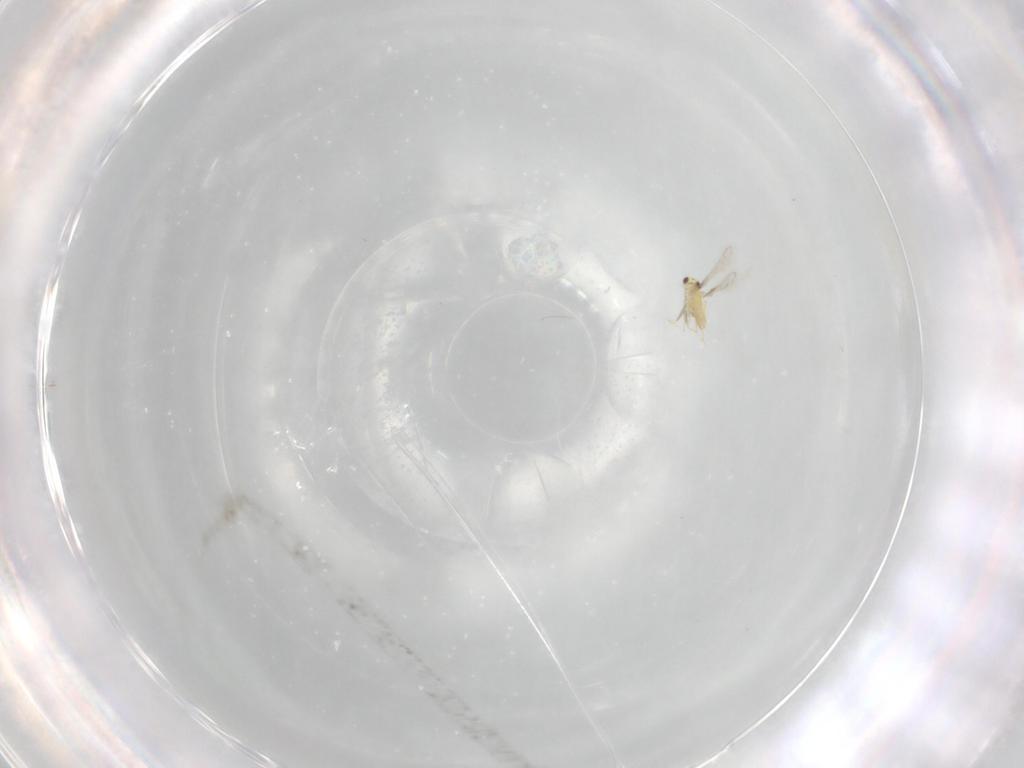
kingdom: Animalia
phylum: Arthropoda
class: Insecta
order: Hymenoptera
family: Mymaridae
